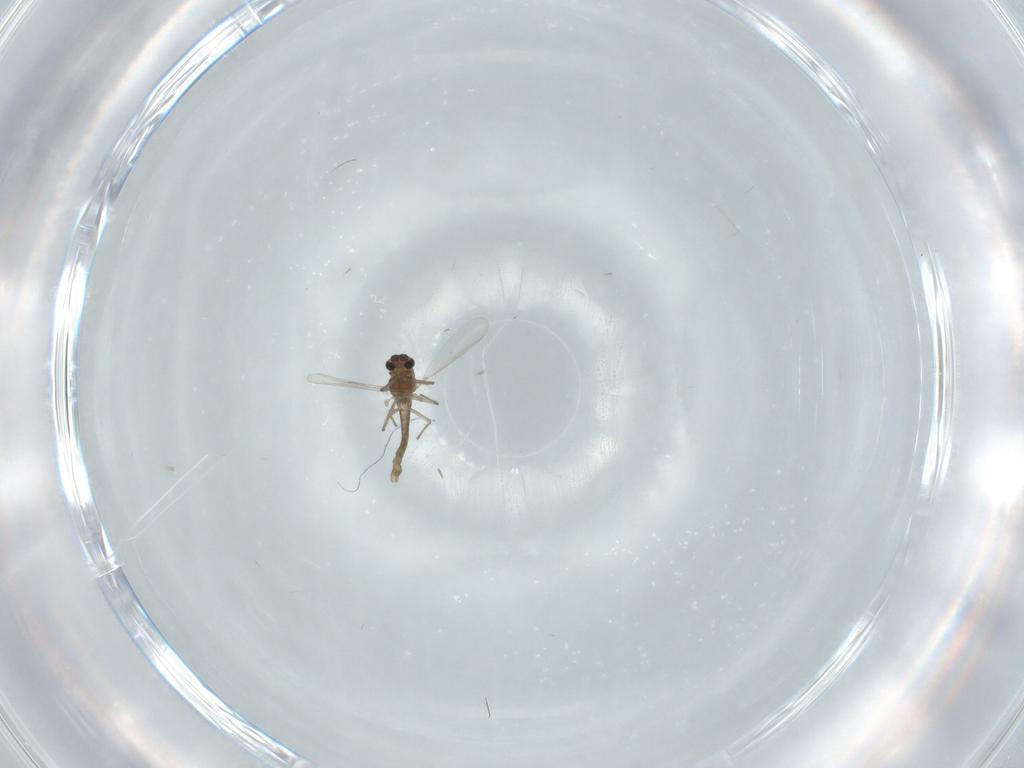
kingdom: Animalia
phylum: Arthropoda
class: Insecta
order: Diptera
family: Chironomidae
